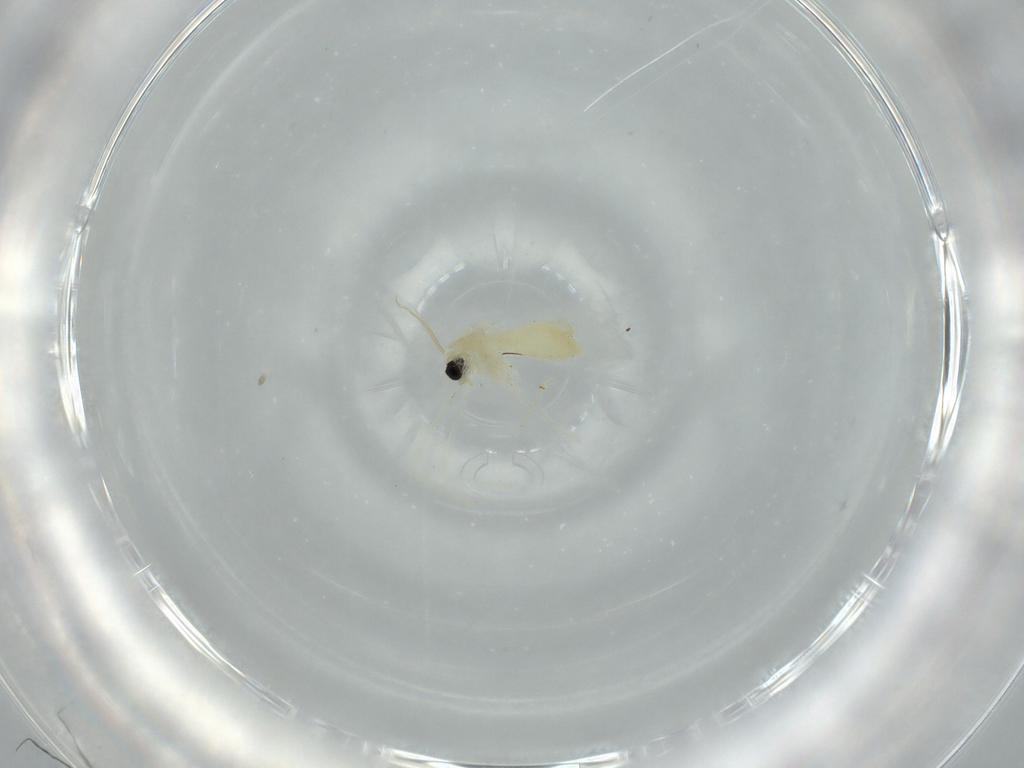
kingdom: Animalia
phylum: Arthropoda
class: Insecta
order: Diptera
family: Chironomidae
